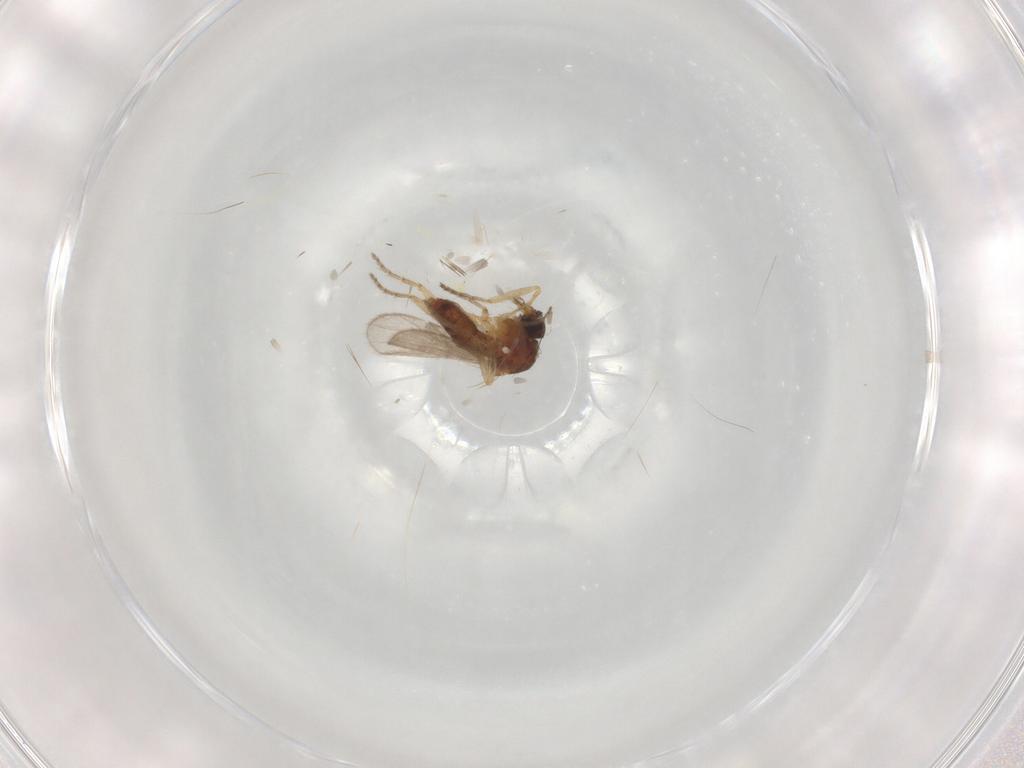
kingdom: Animalia
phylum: Arthropoda
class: Insecta
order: Diptera
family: Ceratopogonidae
